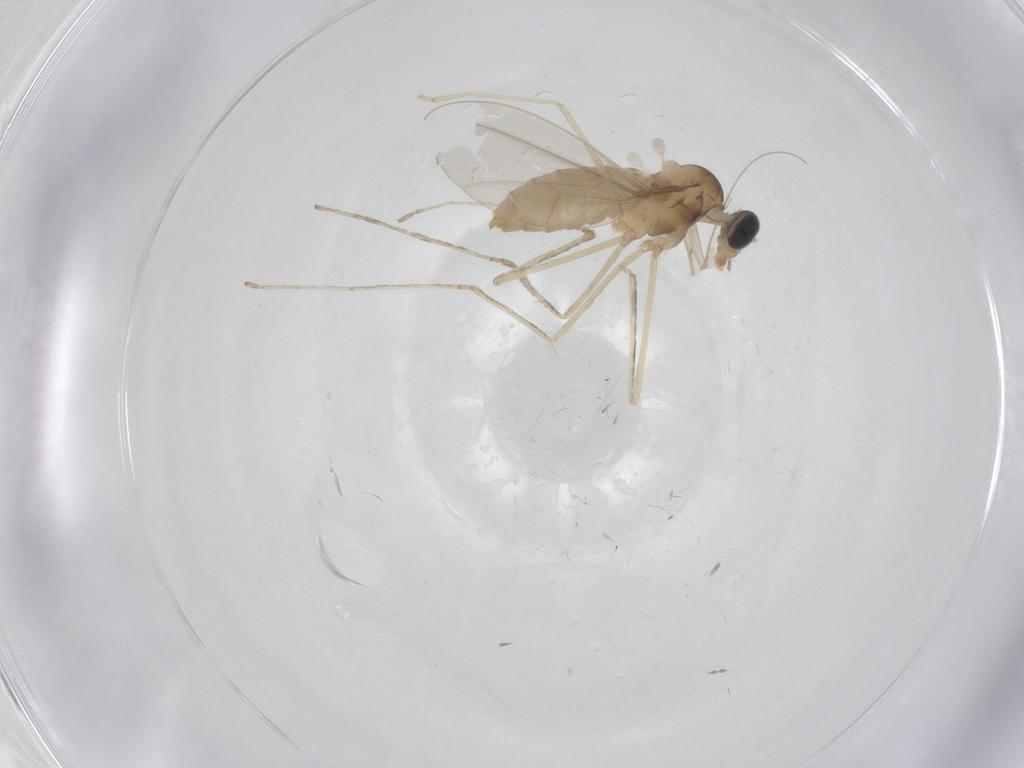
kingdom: Animalia
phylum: Arthropoda
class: Insecta
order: Diptera
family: Cecidomyiidae
